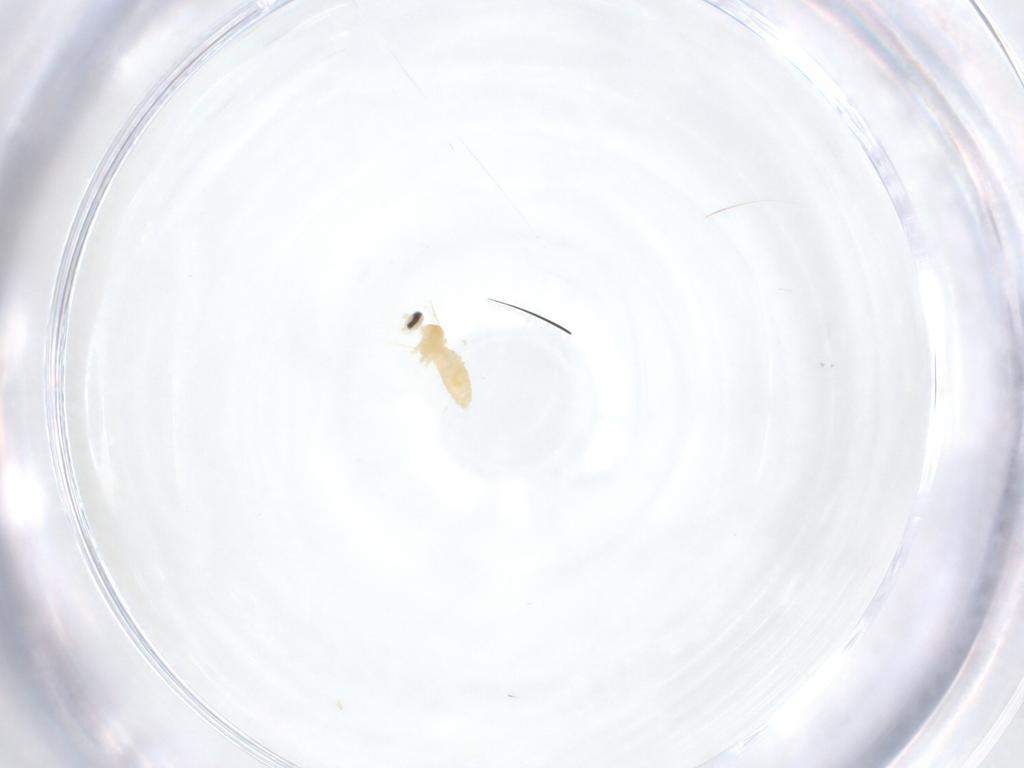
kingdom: Animalia
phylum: Arthropoda
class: Insecta
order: Diptera
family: Cecidomyiidae
